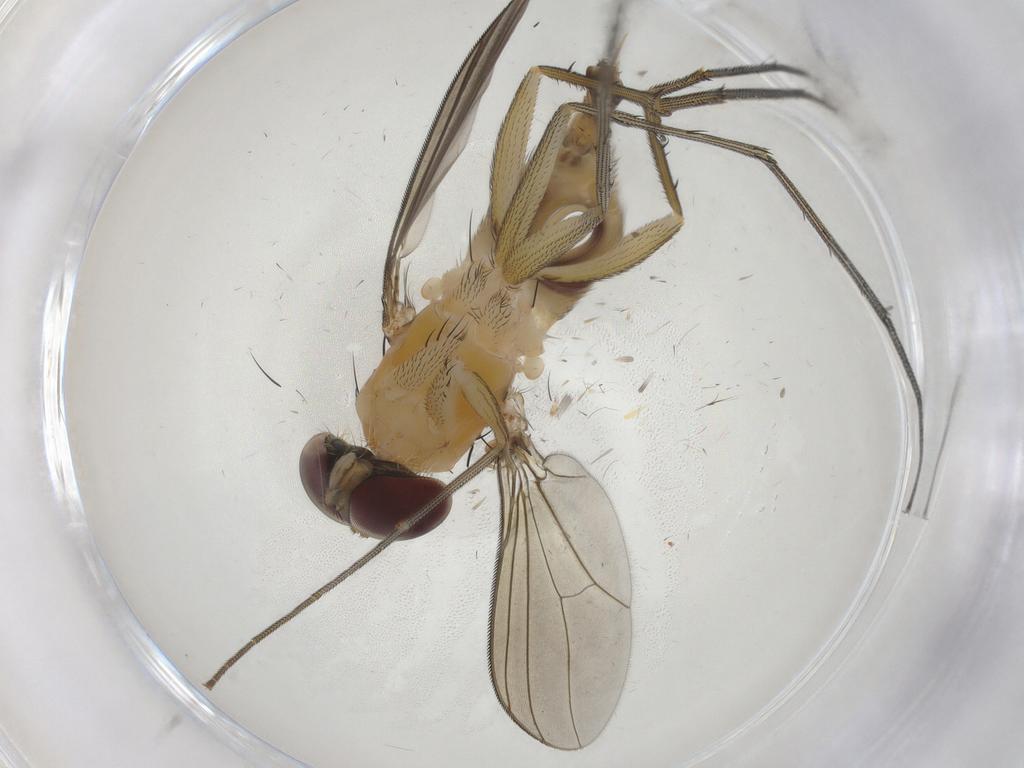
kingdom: Animalia
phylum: Arthropoda
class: Insecta
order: Diptera
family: Dolichopodidae
